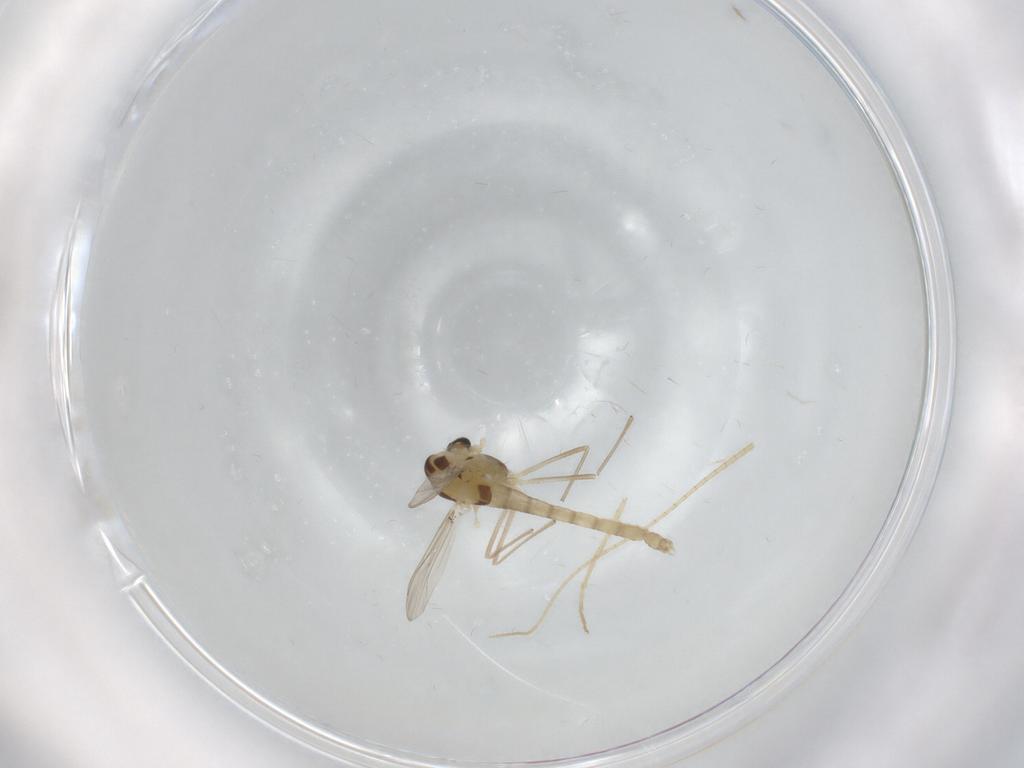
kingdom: Animalia
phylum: Arthropoda
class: Insecta
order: Diptera
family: Chironomidae
